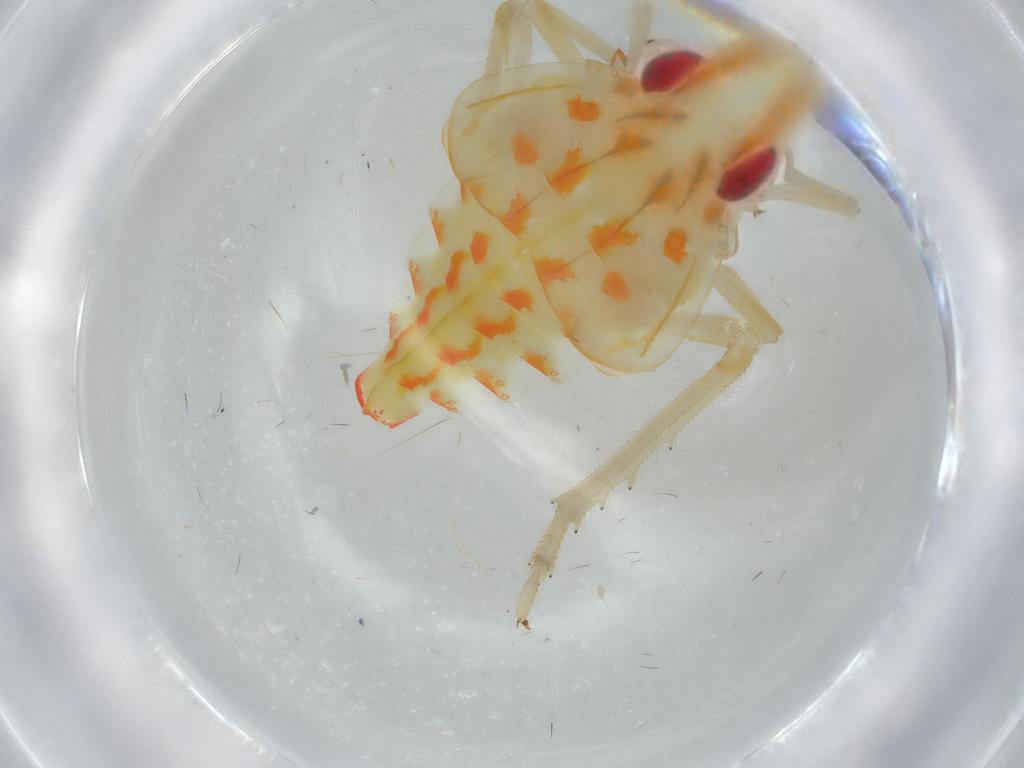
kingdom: Animalia
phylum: Arthropoda
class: Insecta
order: Hemiptera
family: Tropiduchidae
